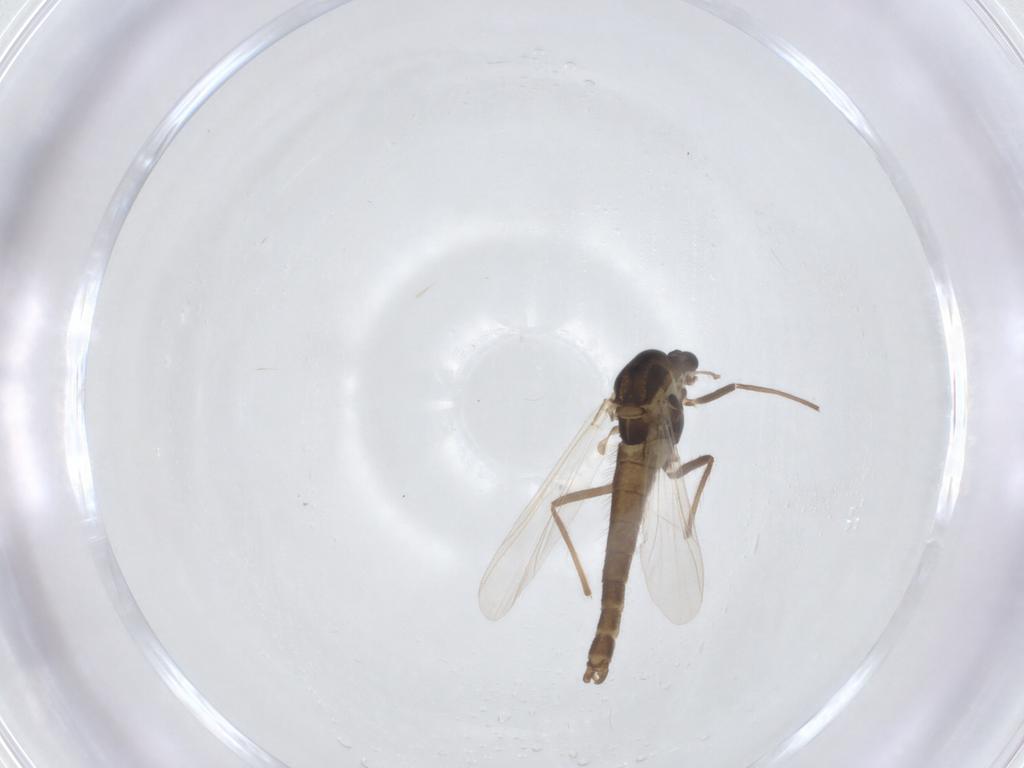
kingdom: Animalia
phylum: Arthropoda
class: Insecta
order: Diptera
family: Chironomidae
